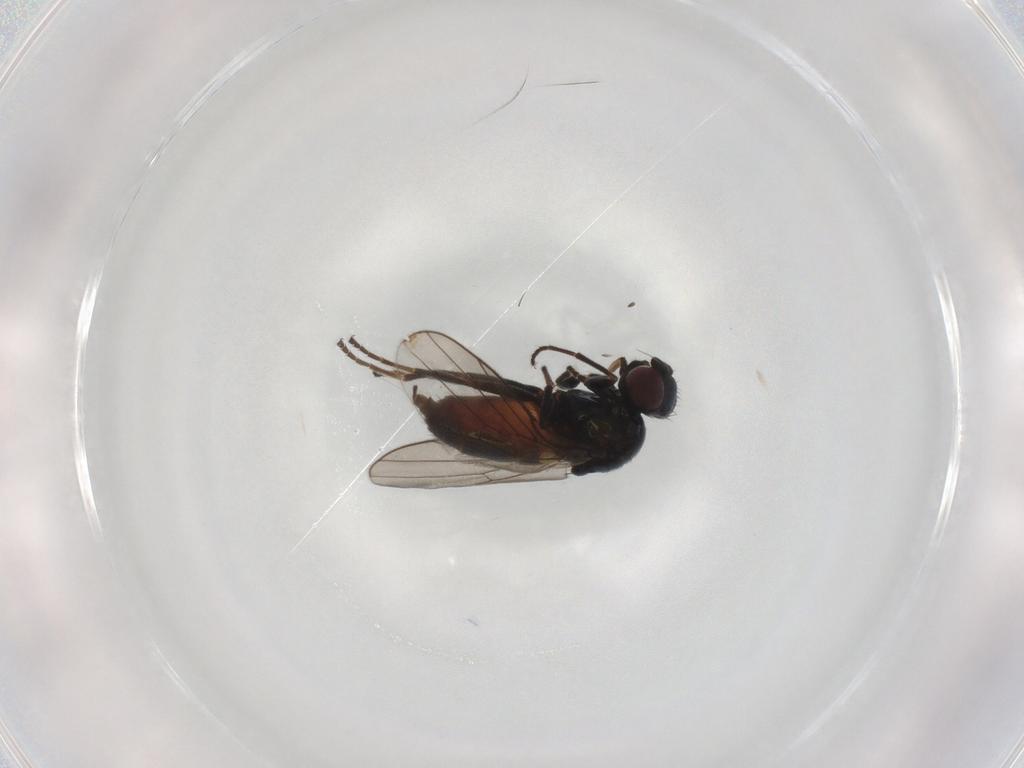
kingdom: Animalia
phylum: Arthropoda
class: Insecta
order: Diptera
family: Chloropidae
